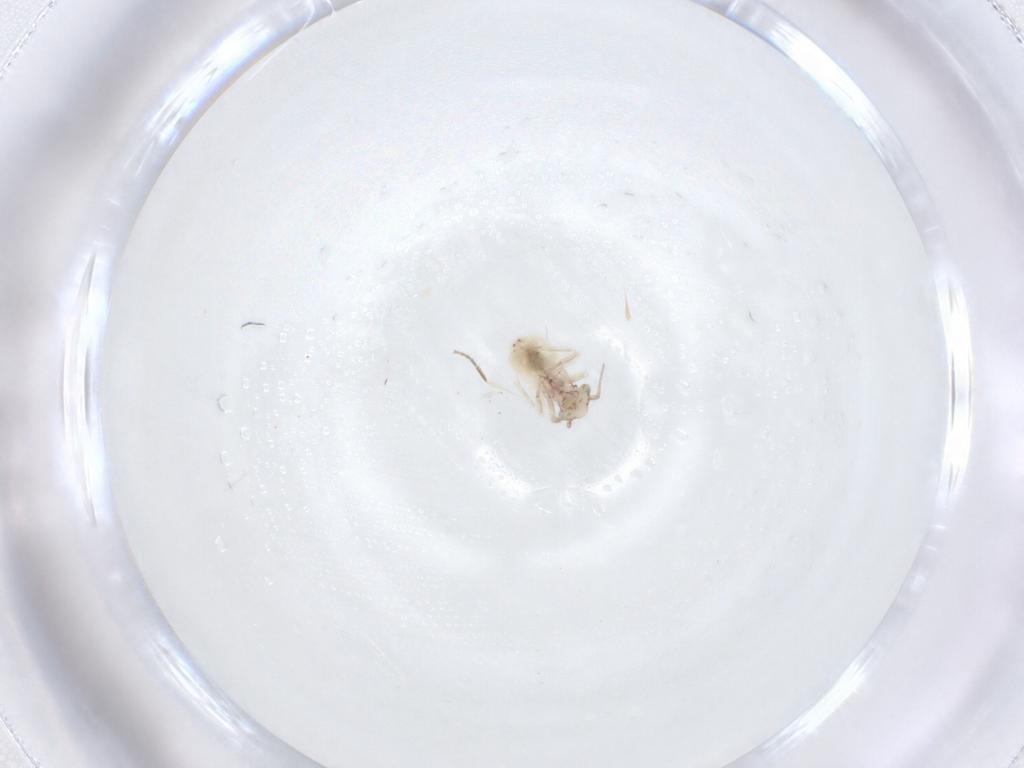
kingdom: Animalia
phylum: Arthropoda
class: Insecta
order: Psocodea
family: Lepidopsocidae
